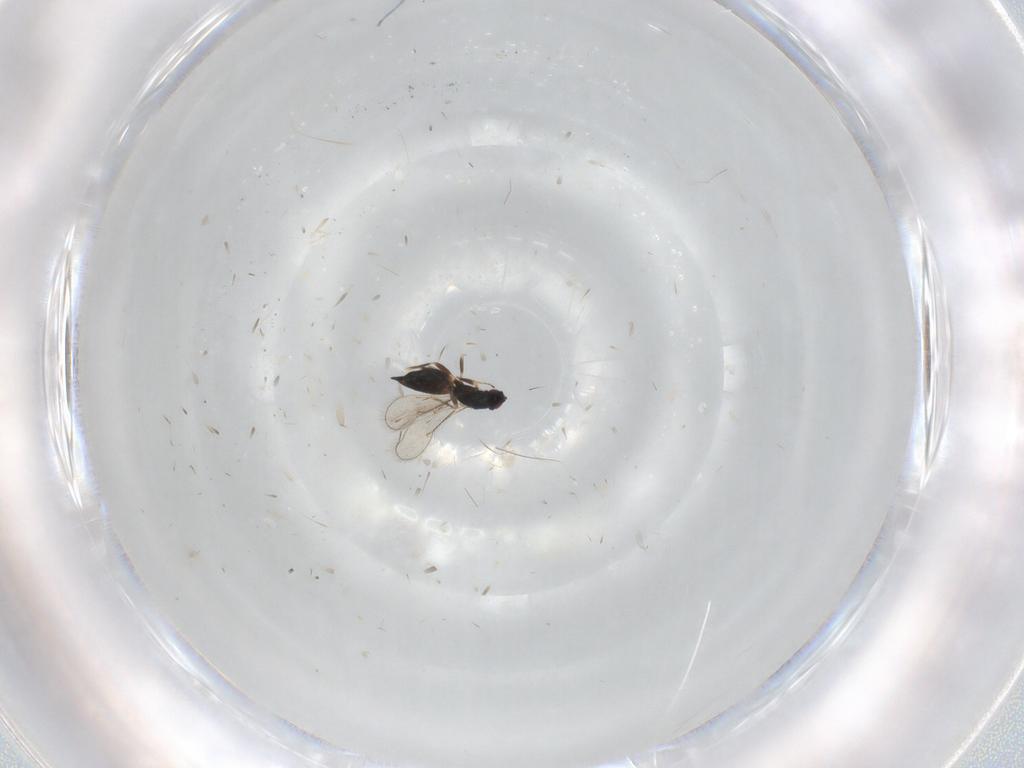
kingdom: Animalia
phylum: Arthropoda
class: Insecta
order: Hymenoptera
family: Eulophidae
